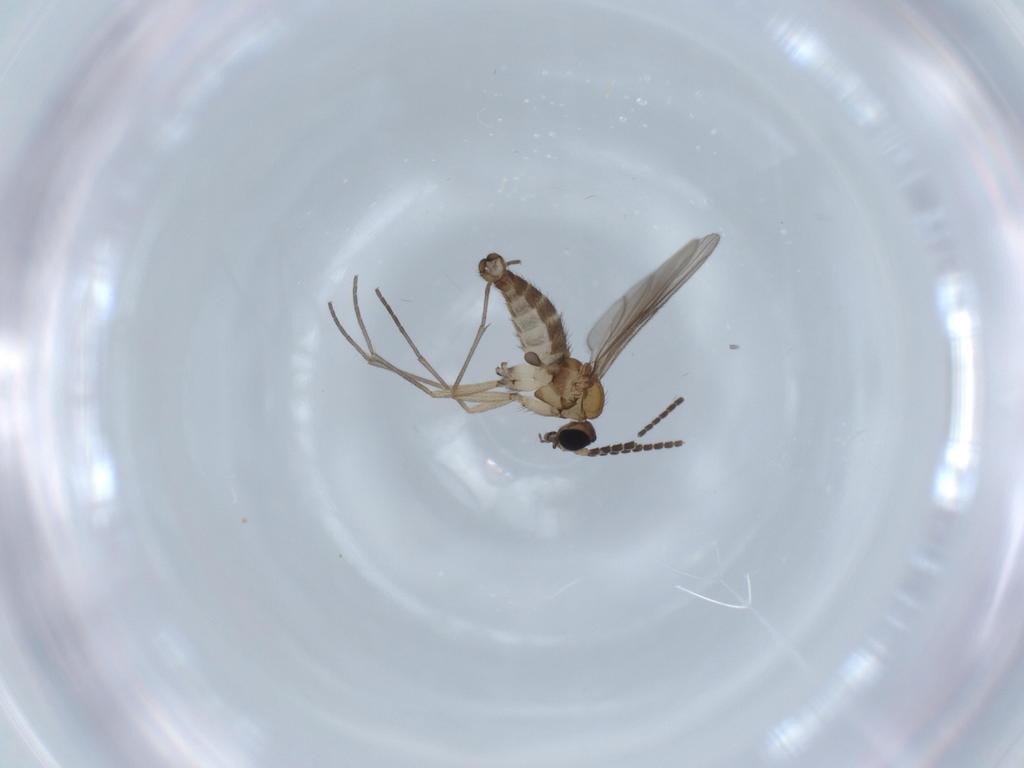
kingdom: Animalia
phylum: Arthropoda
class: Insecta
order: Diptera
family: Sciaridae
